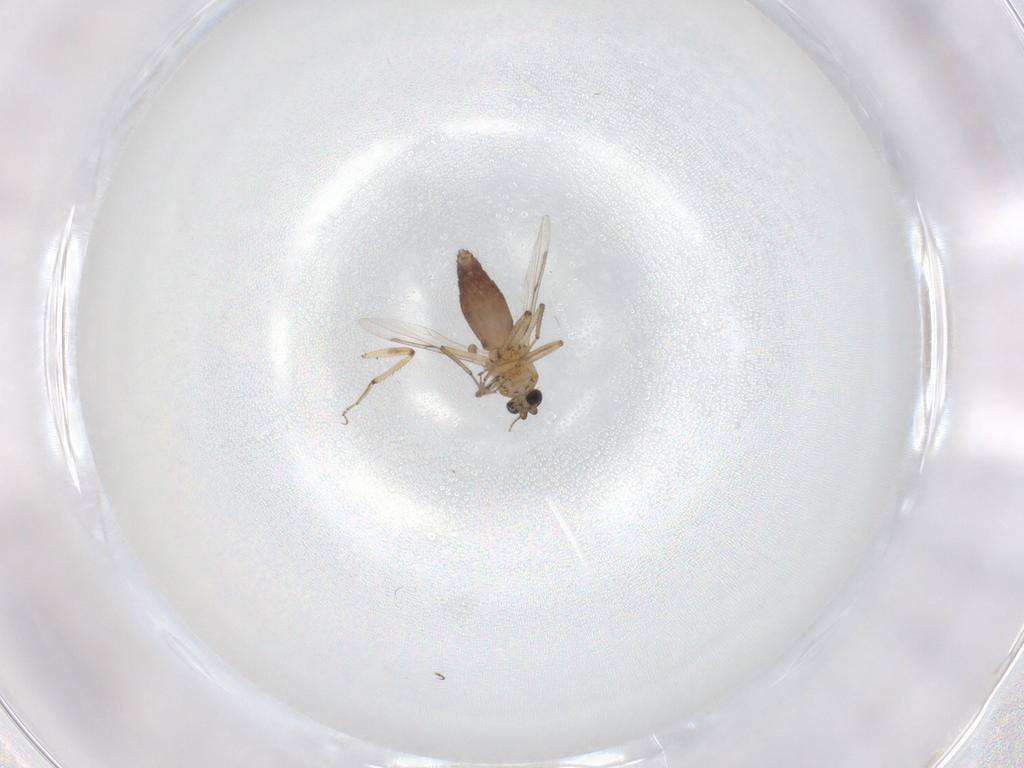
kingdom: Animalia
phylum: Arthropoda
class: Insecta
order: Diptera
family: Ceratopogonidae
